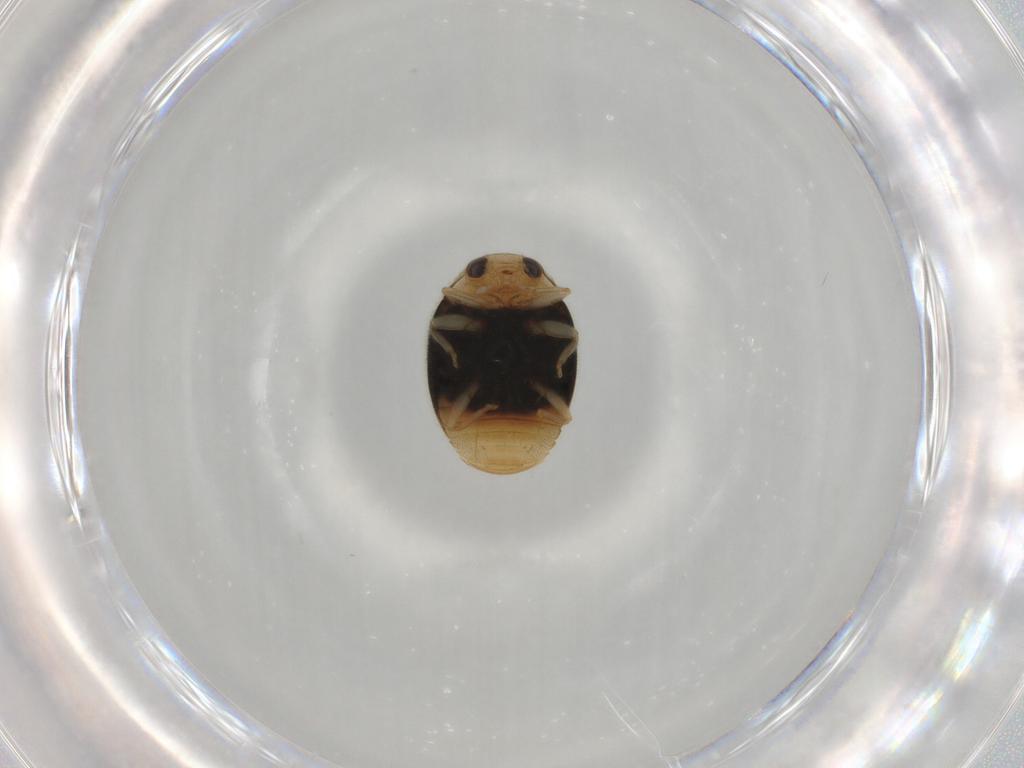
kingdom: Animalia
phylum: Arthropoda
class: Insecta
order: Coleoptera
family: Coccinellidae
